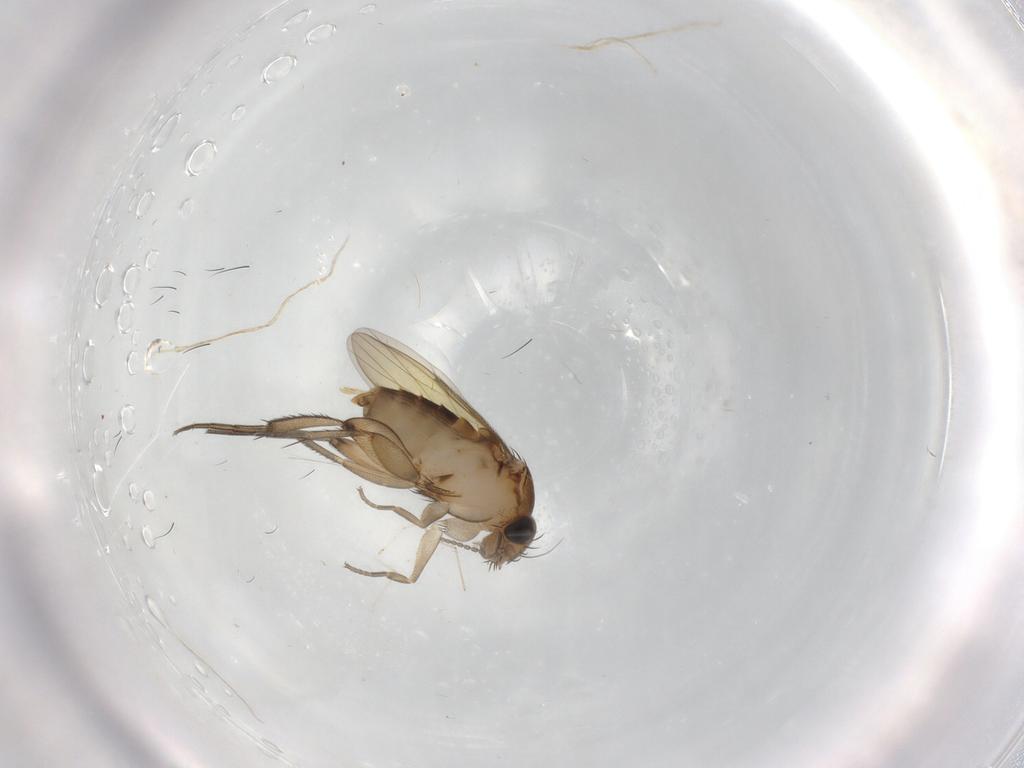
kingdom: Animalia
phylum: Arthropoda
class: Insecta
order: Diptera
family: Phoridae
